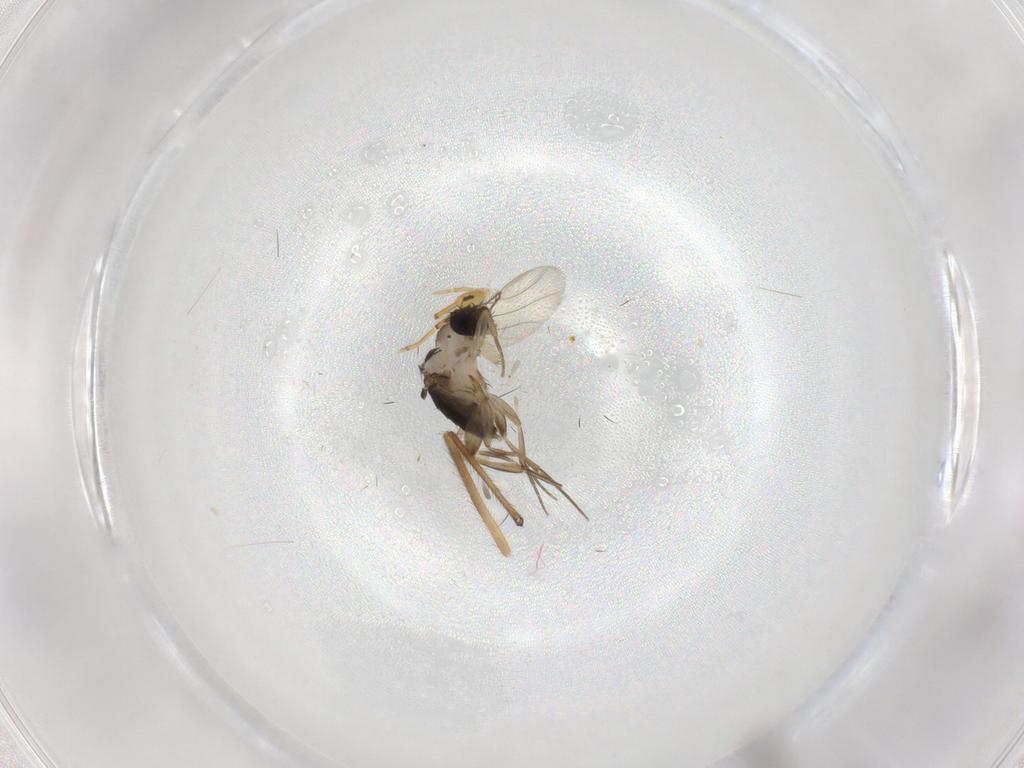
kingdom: Animalia
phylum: Arthropoda
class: Insecta
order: Diptera
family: Phoridae
